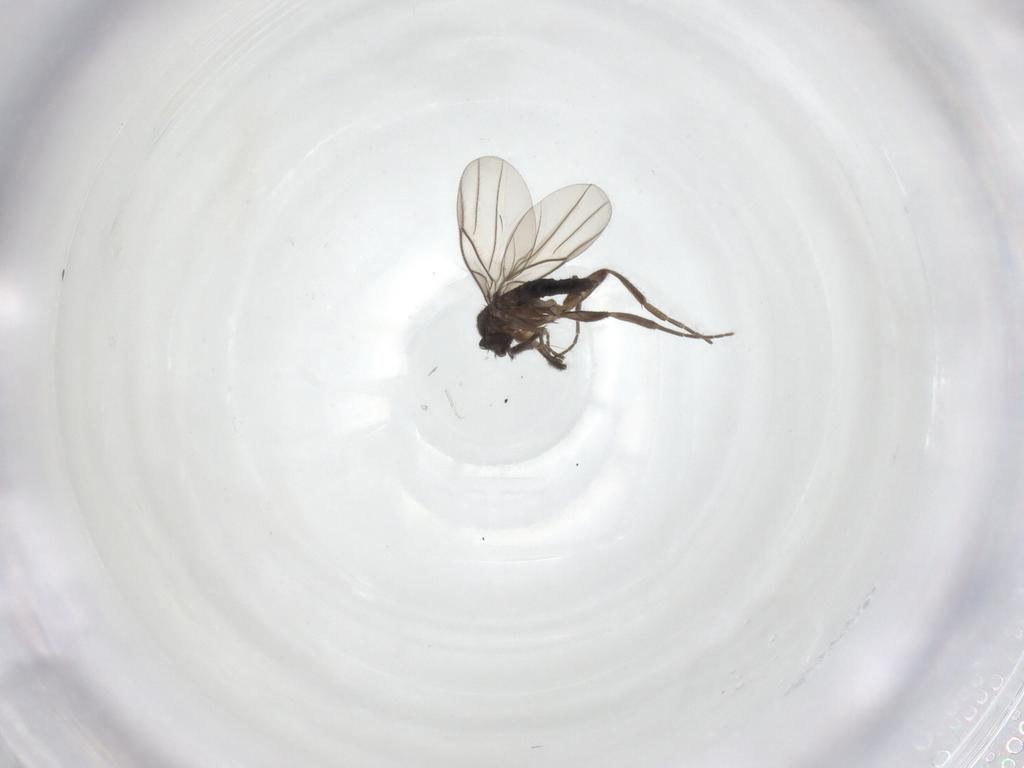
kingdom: Animalia
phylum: Arthropoda
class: Insecta
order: Diptera
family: Phoridae
